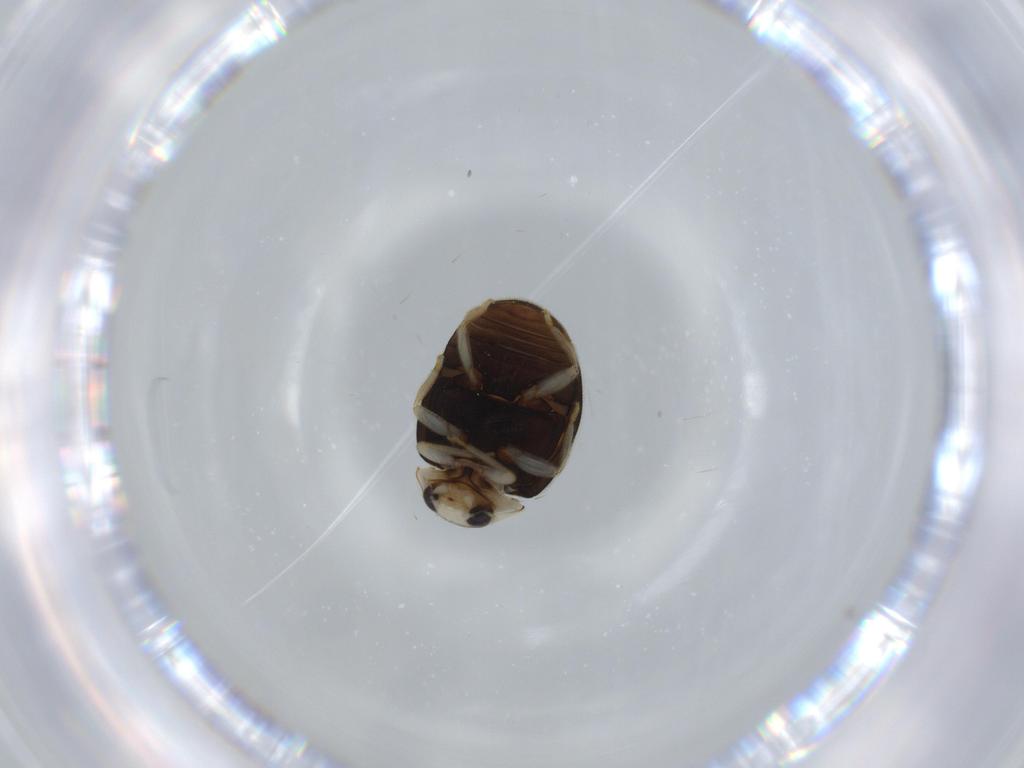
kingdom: Animalia
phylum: Arthropoda
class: Insecta
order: Coleoptera
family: Coccinellidae
